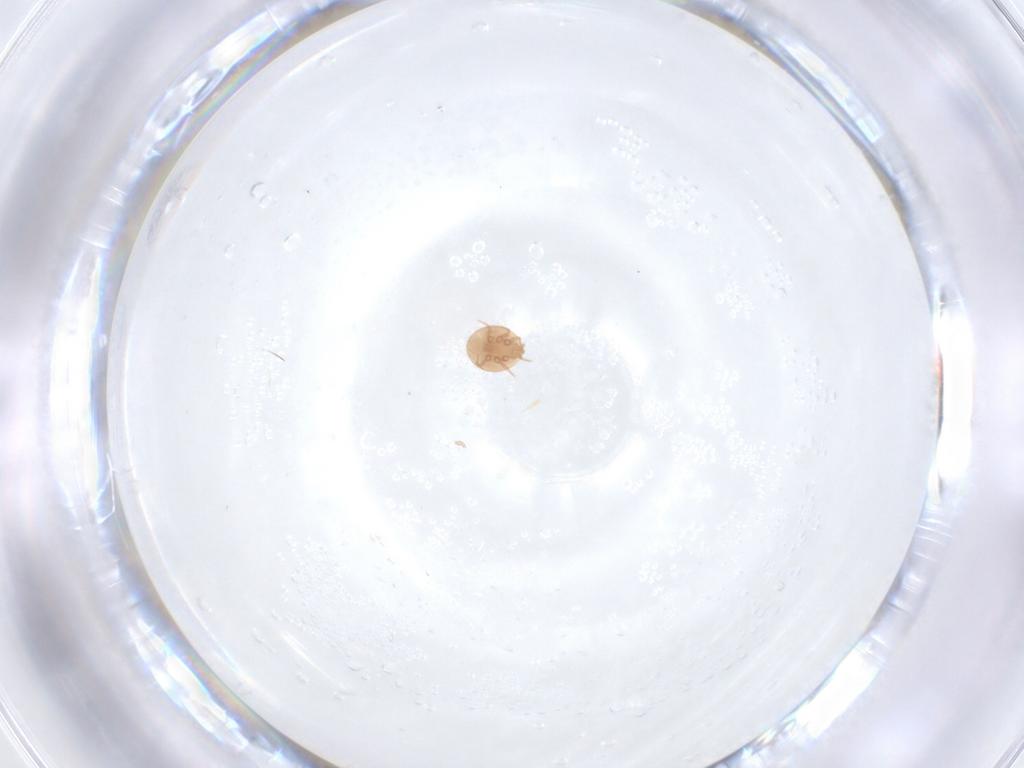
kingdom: Animalia
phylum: Arthropoda
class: Arachnida
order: Mesostigmata
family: Trematuridae
